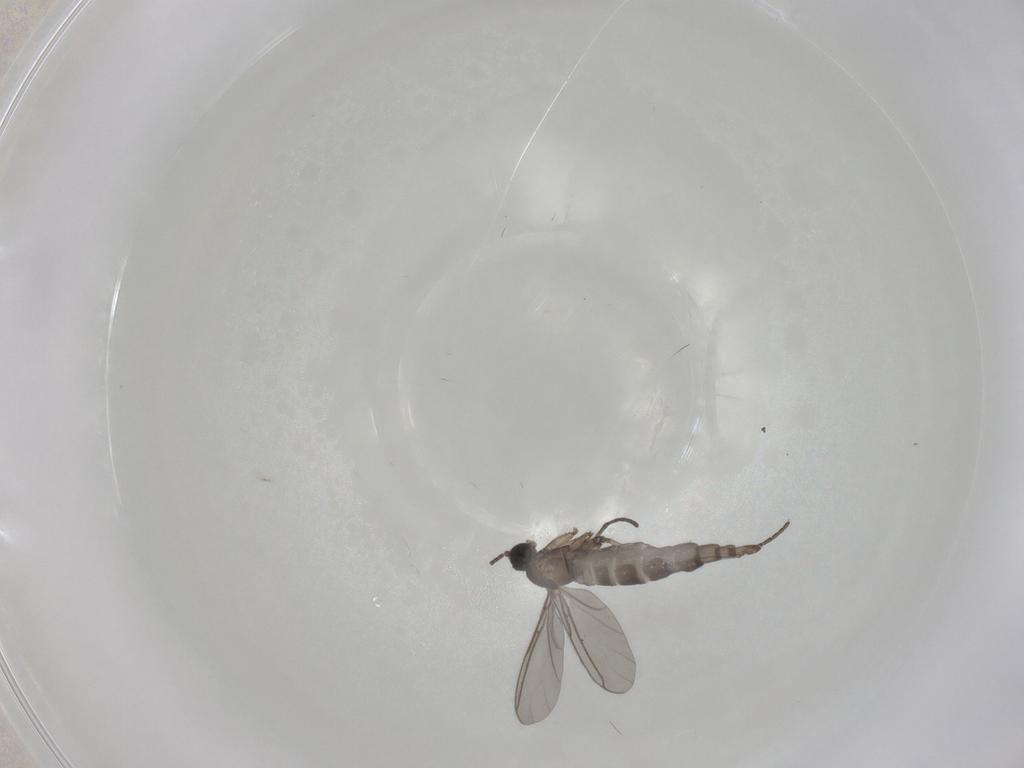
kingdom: Animalia
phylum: Arthropoda
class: Insecta
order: Diptera
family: Sciaridae
